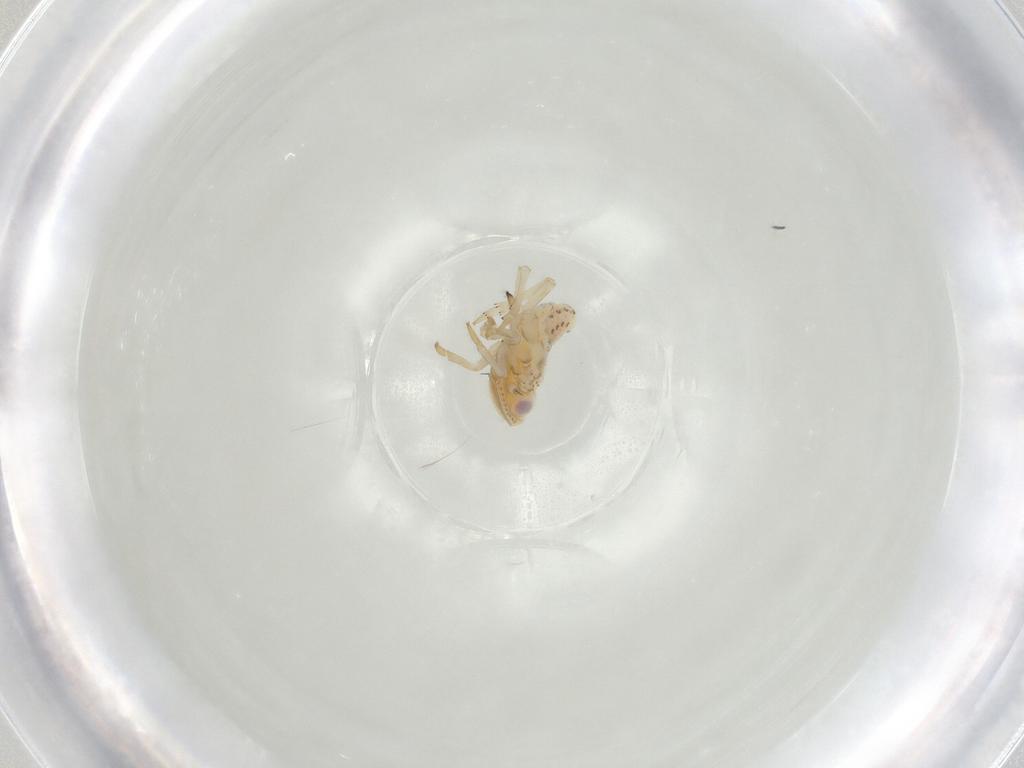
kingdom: Animalia
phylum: Arthropoda
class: Insecta
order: Hemiptera
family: Tropiduchidae
